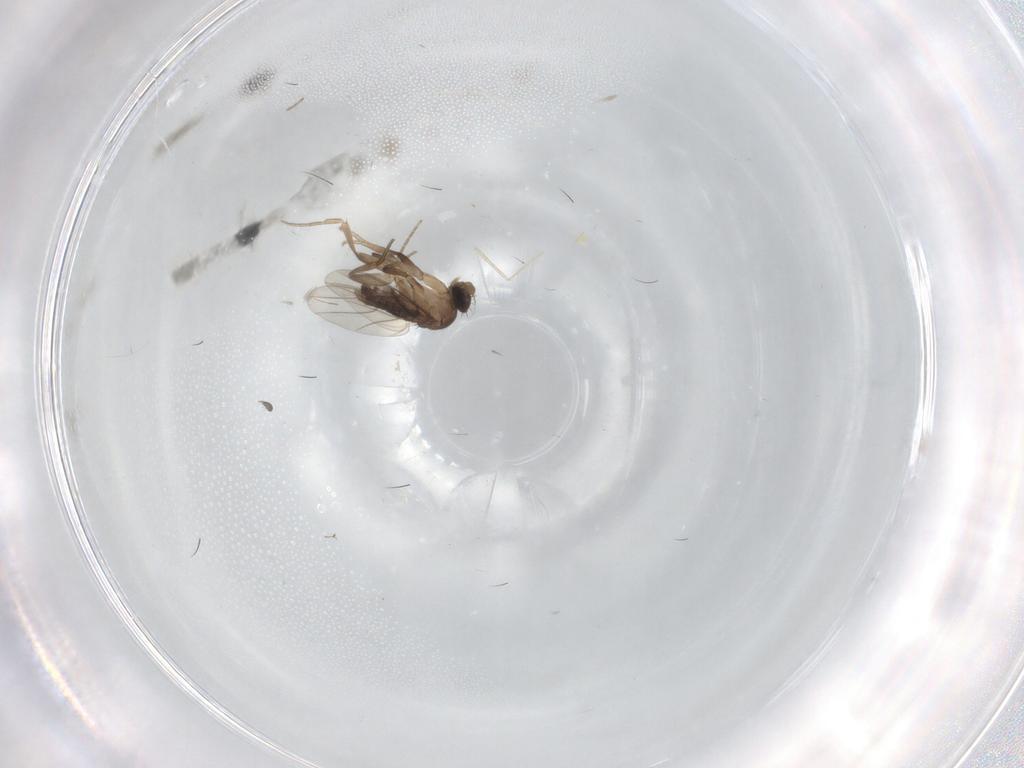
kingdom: Animalia
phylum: Arthropoda
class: Insecta
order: Diptera
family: Phoridae
